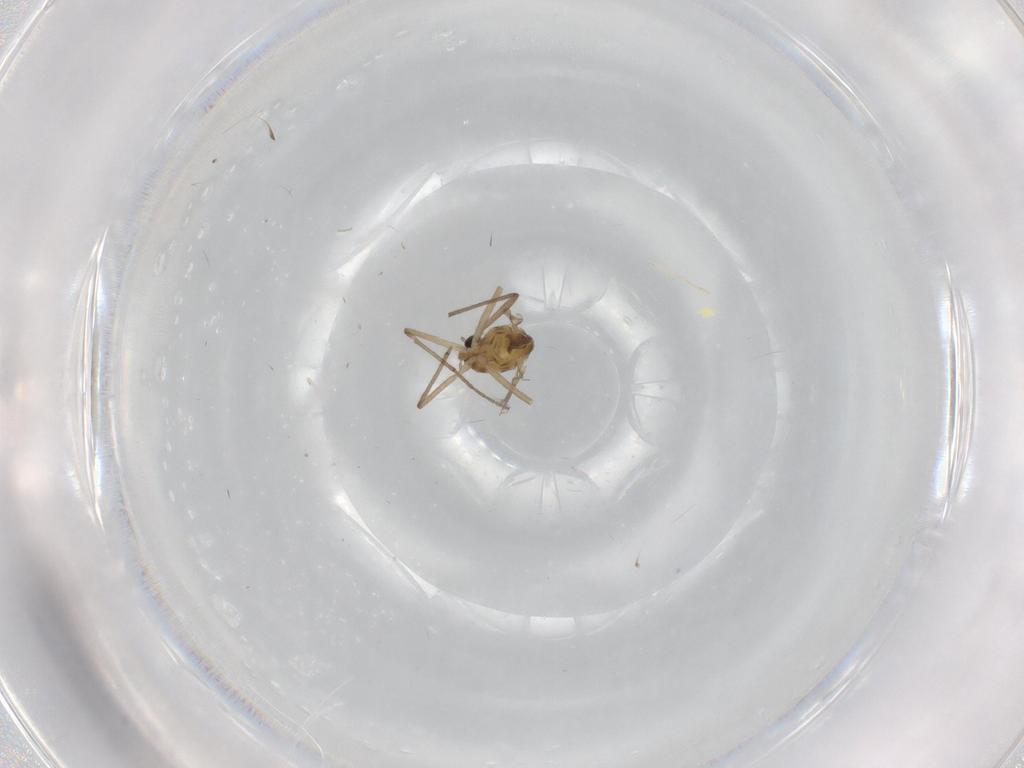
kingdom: Animalia
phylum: Arthropoda
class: Insecta
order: Diptera
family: Chironomidae
